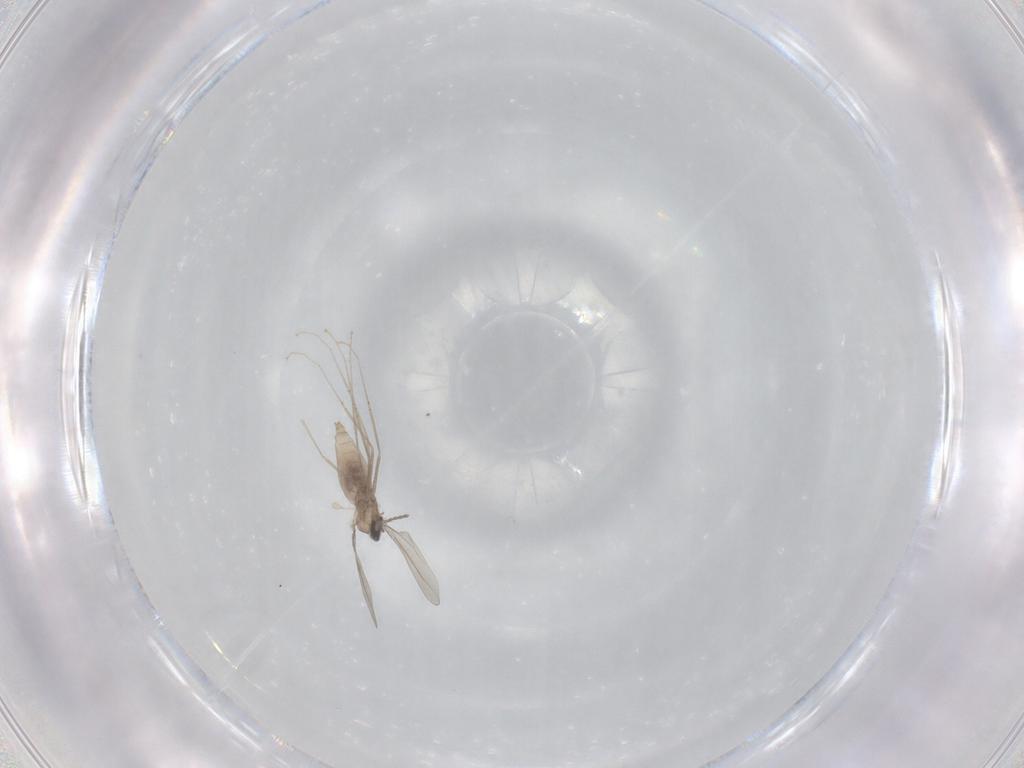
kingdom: Animalia
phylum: Arthropoda
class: Insecta
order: Diptera
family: Cecidomyiidae
